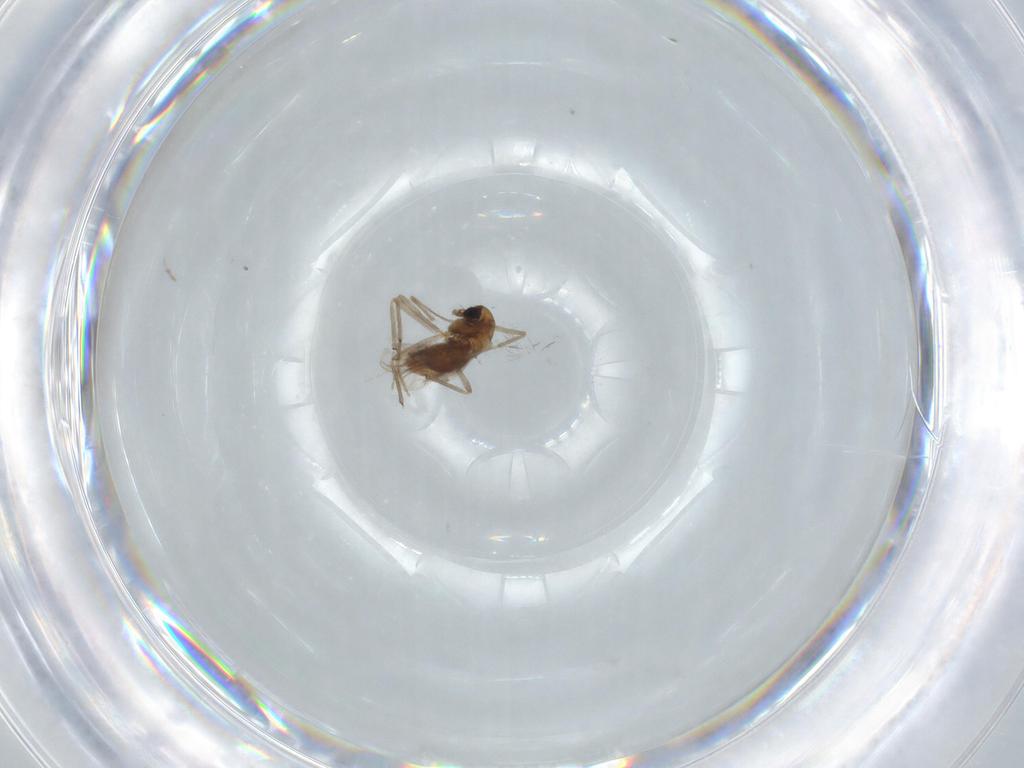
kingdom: Animalia
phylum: Arthropoda
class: Insecta
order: Diptera
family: Chironomidae
